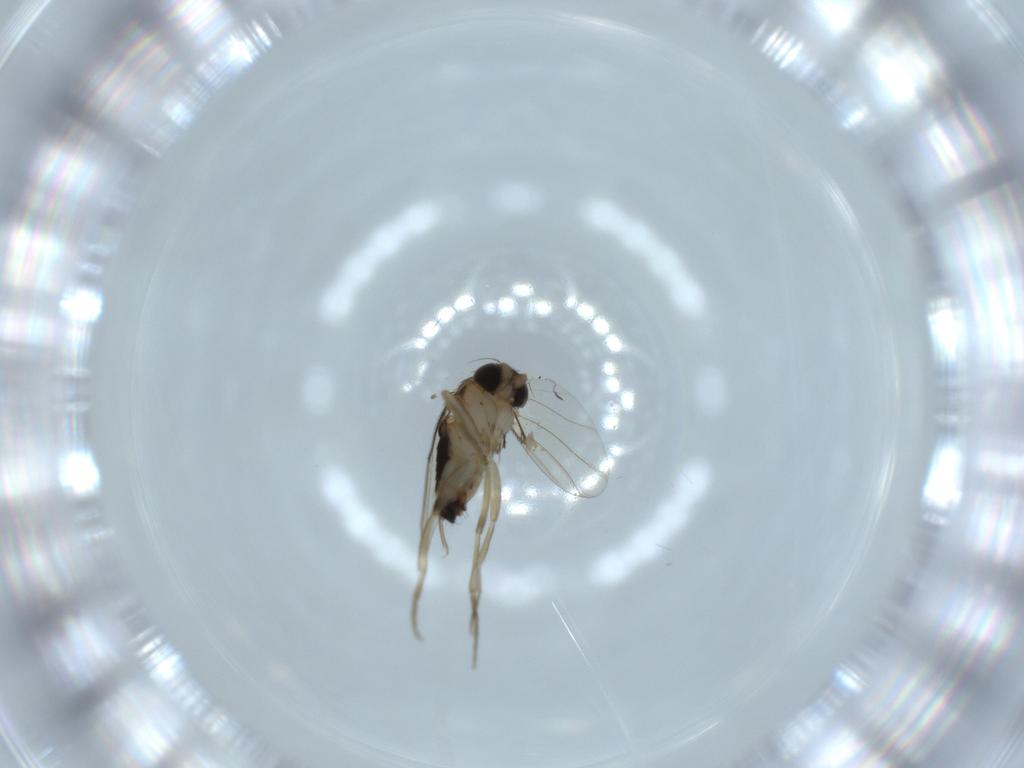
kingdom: Animalia
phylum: Arthropoda
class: Insecta
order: Diptera
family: Phoridae
